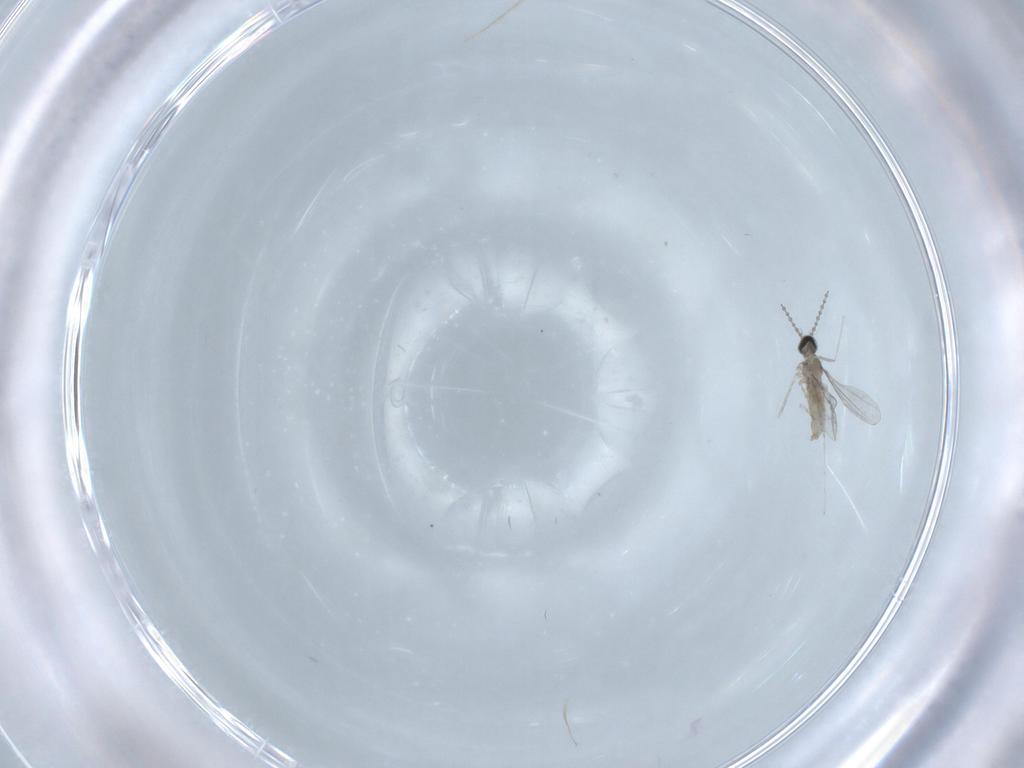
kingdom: Animalia
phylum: Arthropoda
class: Insecta
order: Diptera
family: Cecidomyiidae
